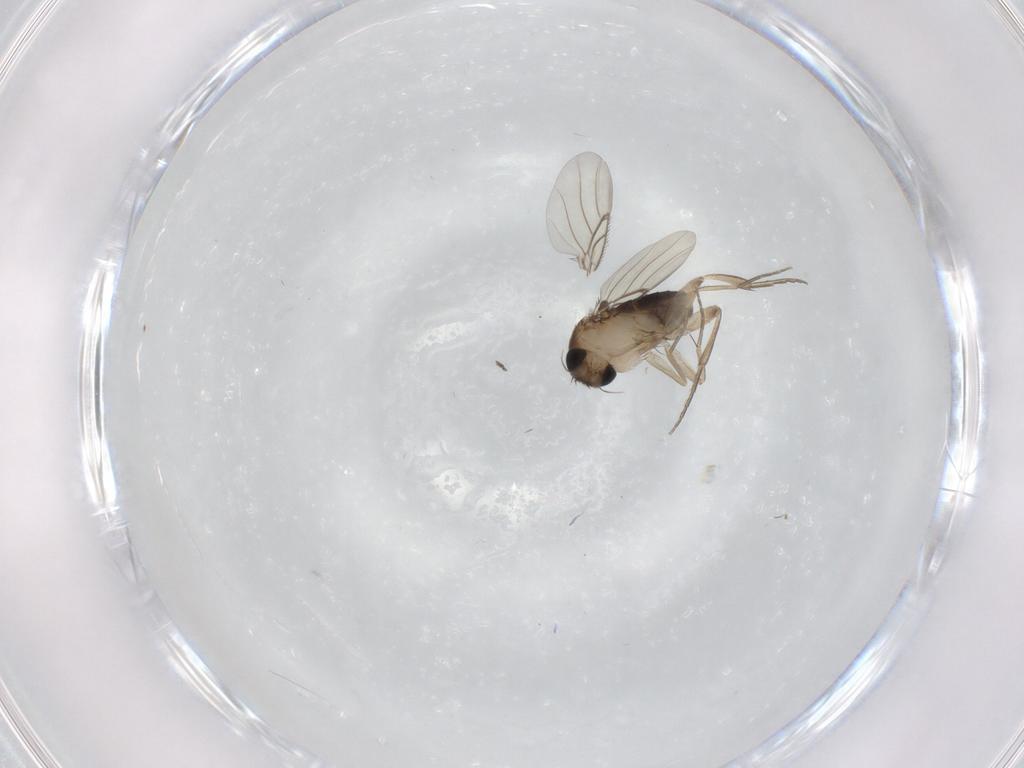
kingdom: Animalia
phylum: Arthropoda
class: Insecta
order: Diptera
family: Phoridae
